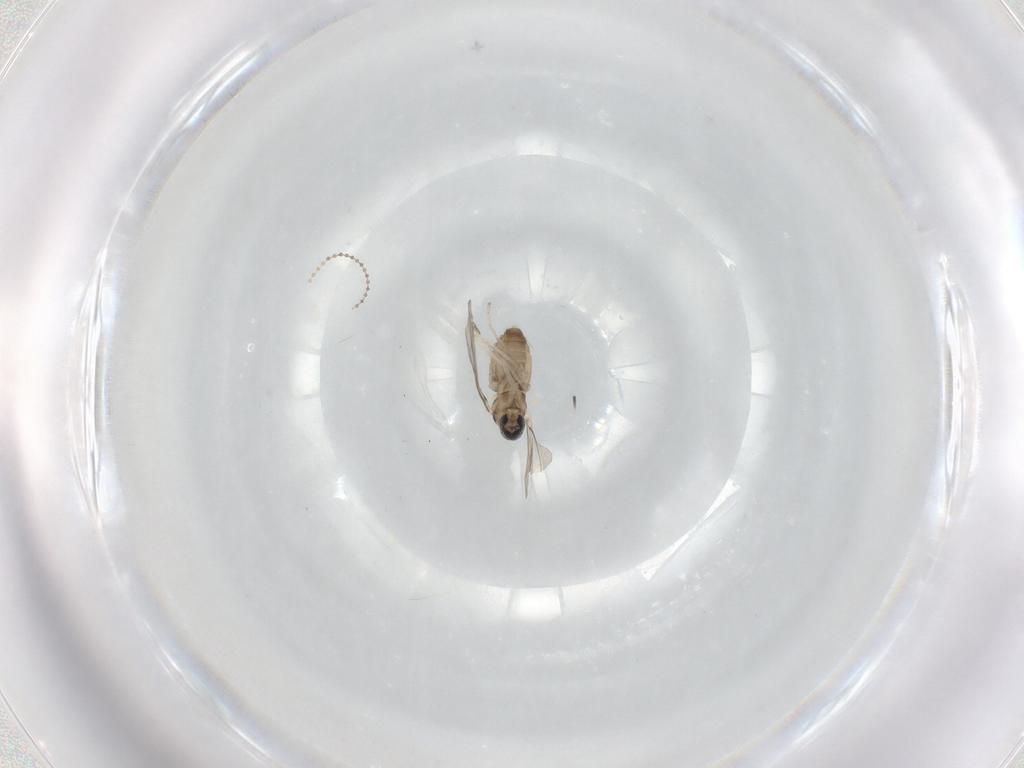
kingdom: Animalia
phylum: Arthropoda
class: Insecta
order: Diptera
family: Cecidomyiidae
